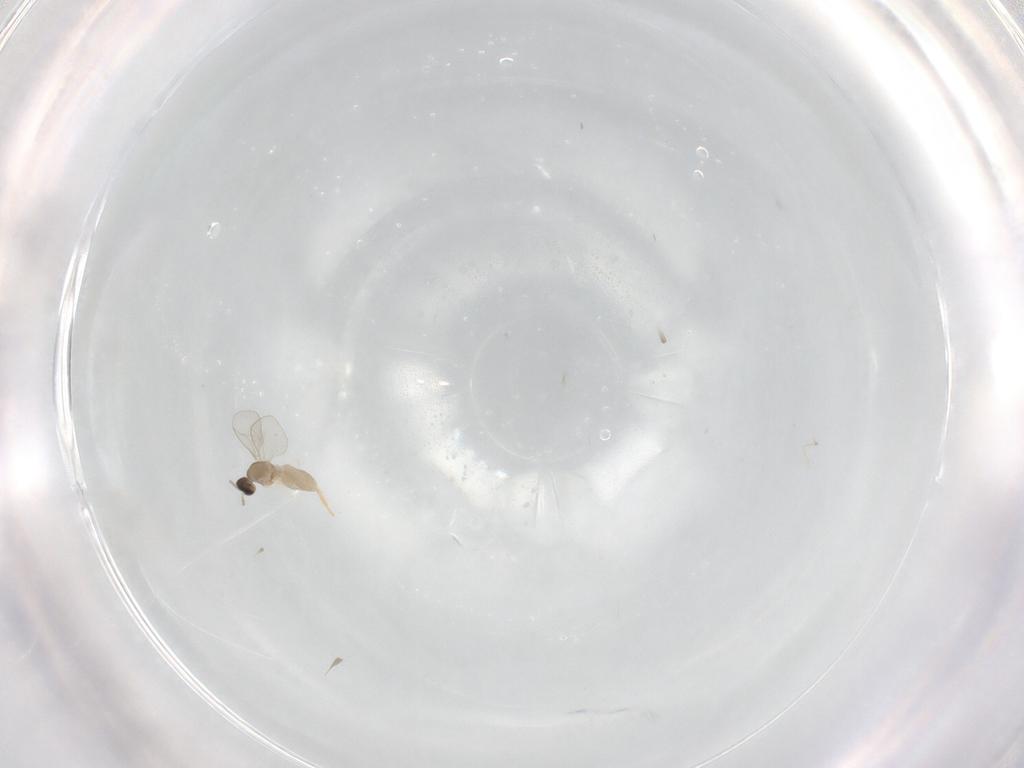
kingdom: Animalia
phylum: Arthropoda
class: Insecta
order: Diptera
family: Cecidomyiidae
